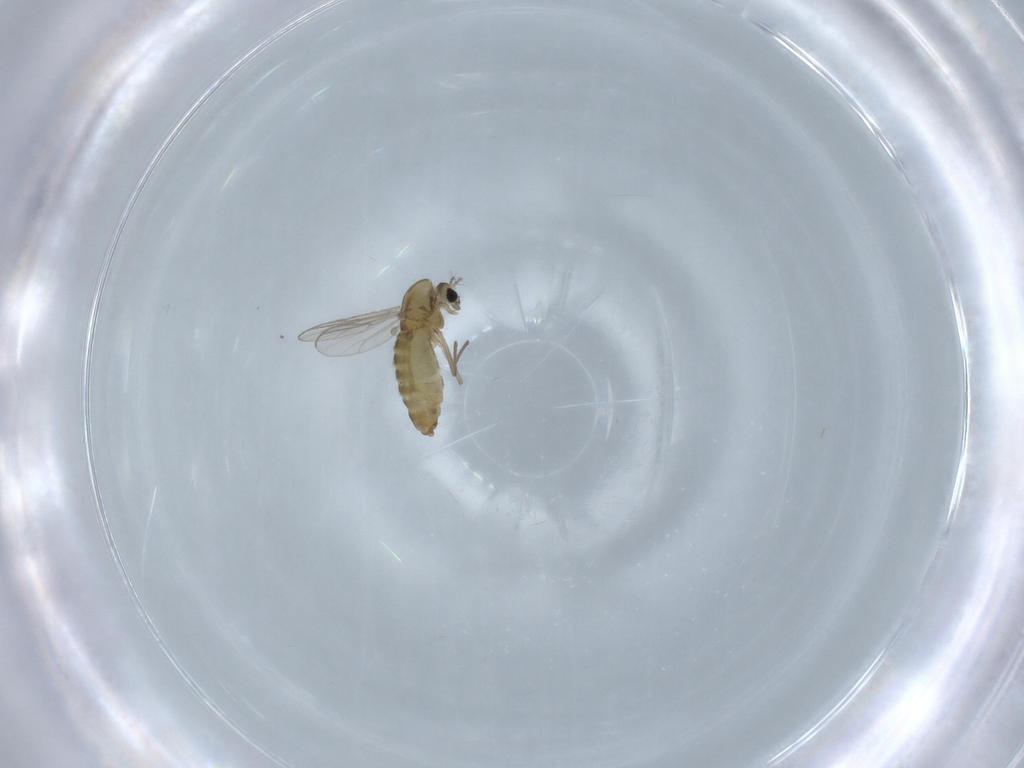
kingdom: Animalia
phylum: Arthropoda
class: Insecta
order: Diptera
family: Chironomidae
